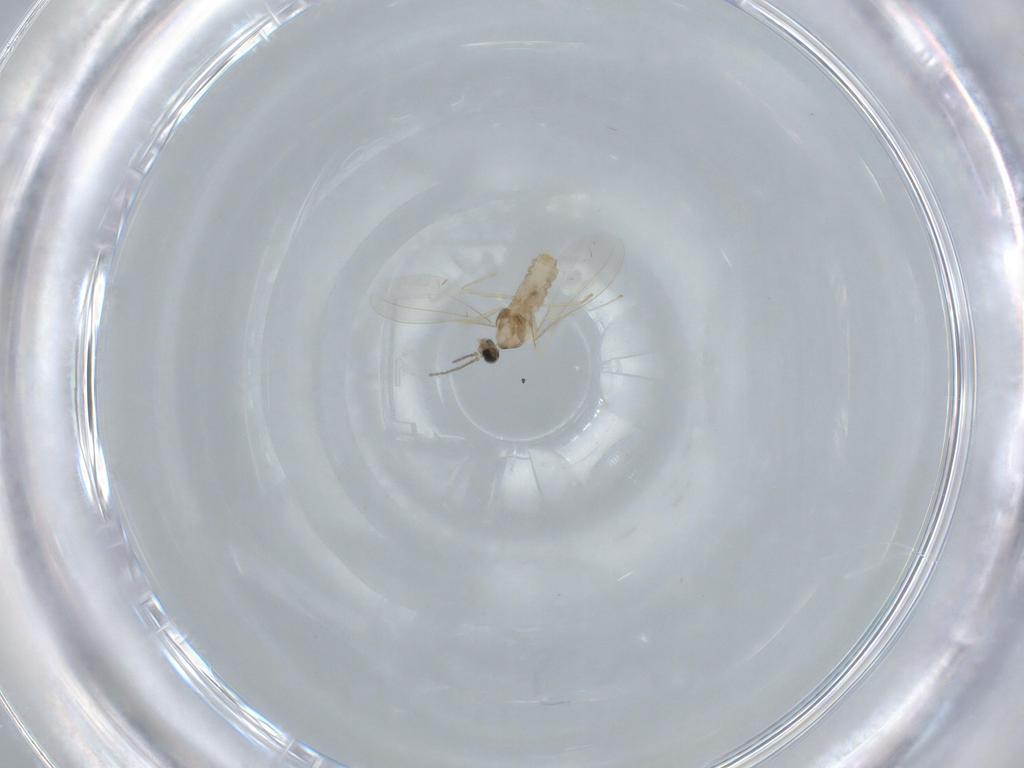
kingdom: Animalia
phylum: Arthropoda
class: Insecta
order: Diptera
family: Cecidomyiidae
